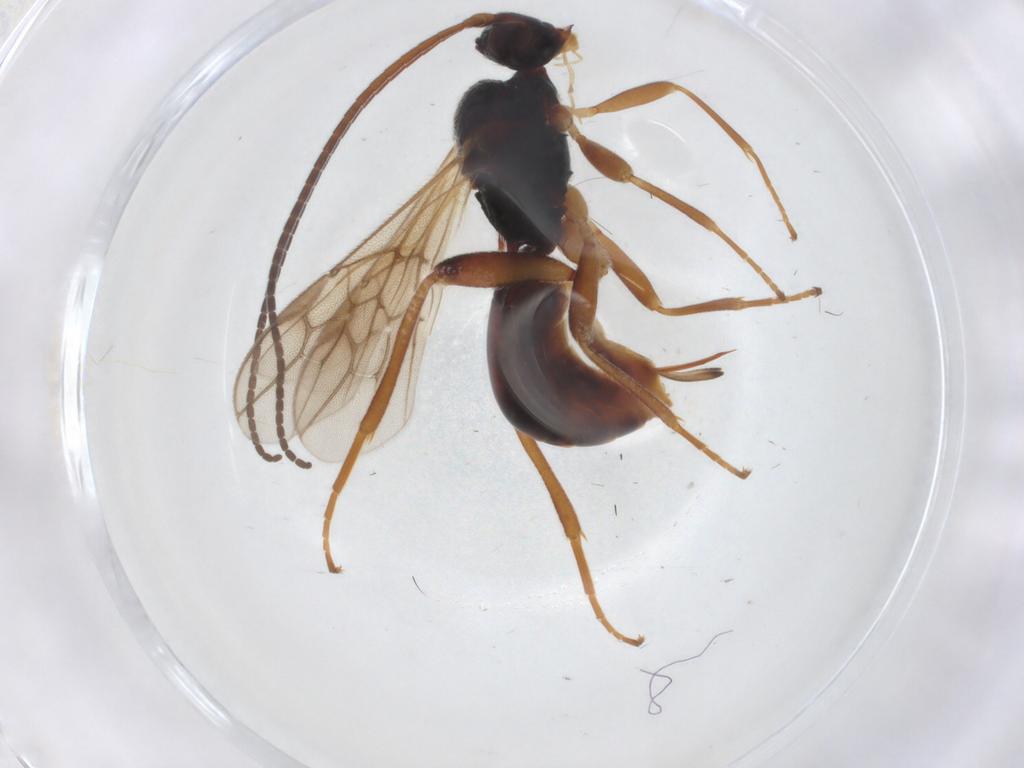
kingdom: Animalia
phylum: Arthropoda
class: Insecta
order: Hymenoptera
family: Braconidae
